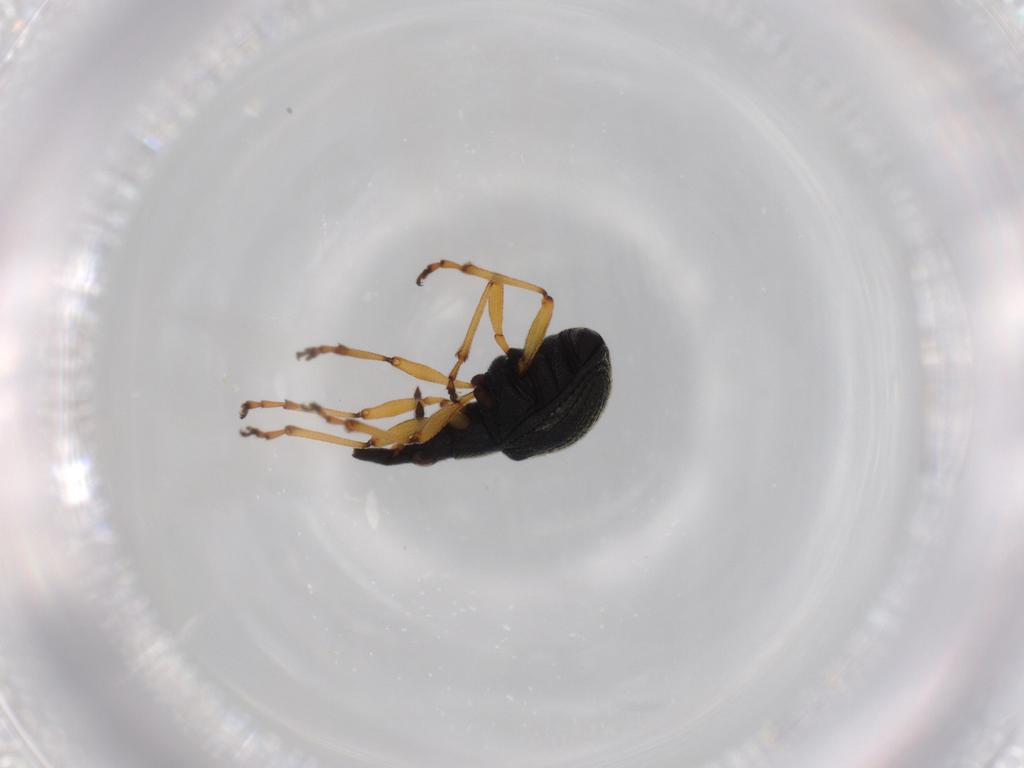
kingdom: Animalia
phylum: Arthropoda
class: Insecta
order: Coleoptera
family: Brentidae
